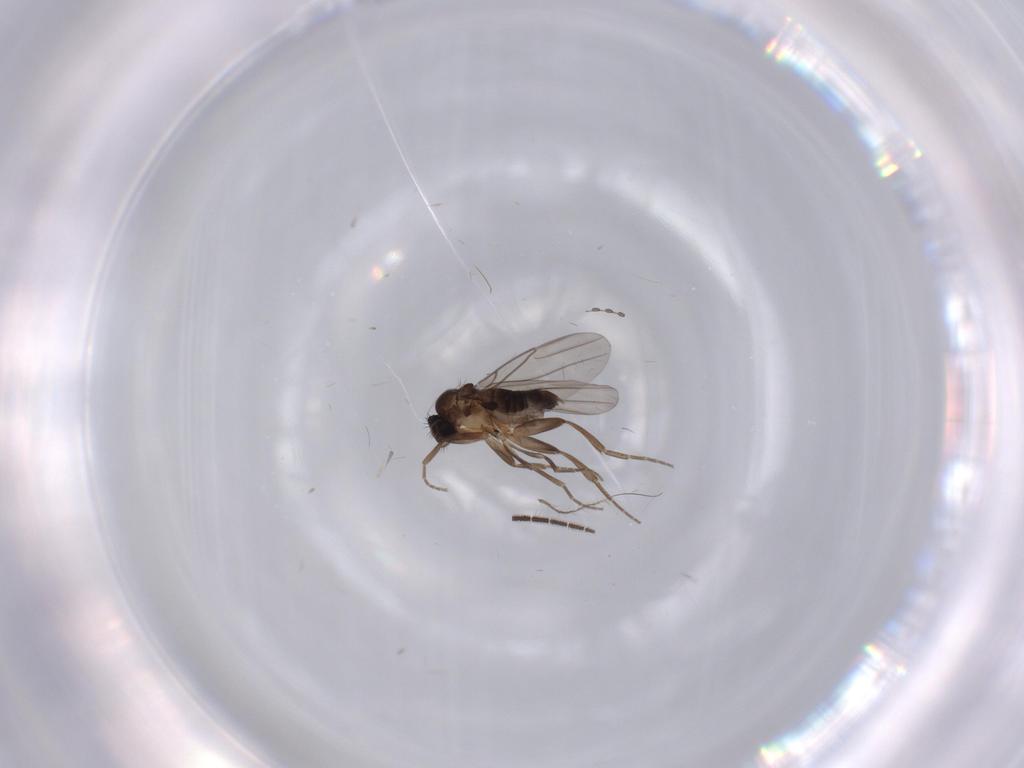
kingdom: Animalia
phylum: Arthropoda
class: Insecta
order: Diptera
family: Phoridae
